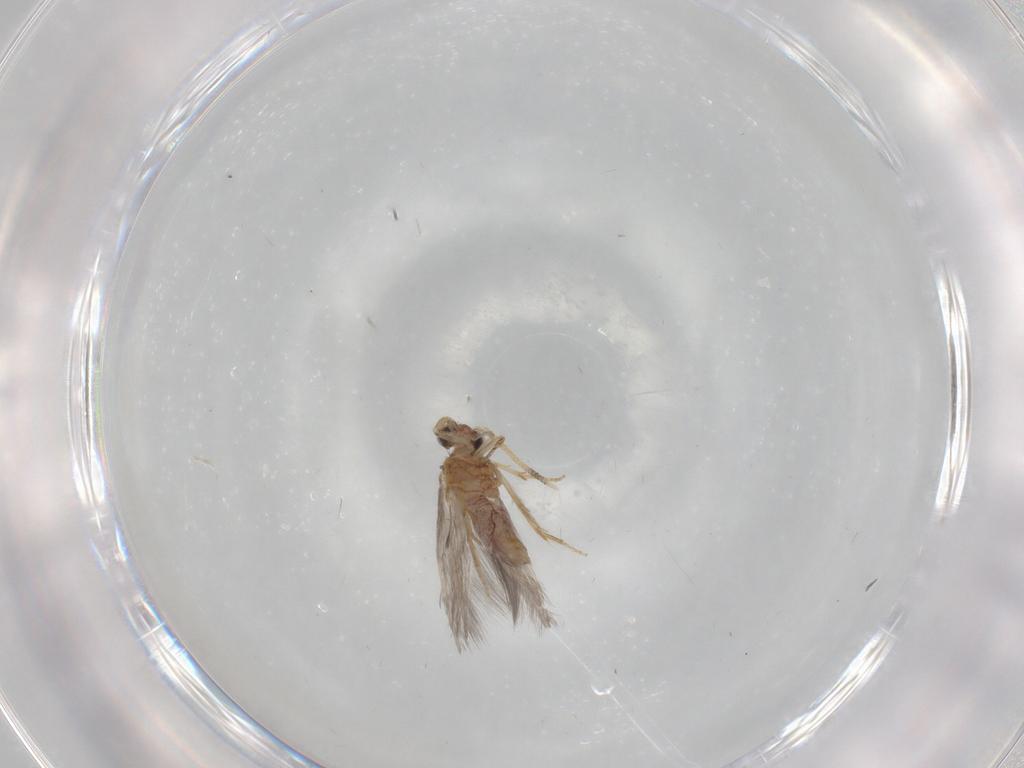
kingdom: Animalia
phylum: Arthropoda
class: Insecta
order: Trichoptera
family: Hydroptilidae
